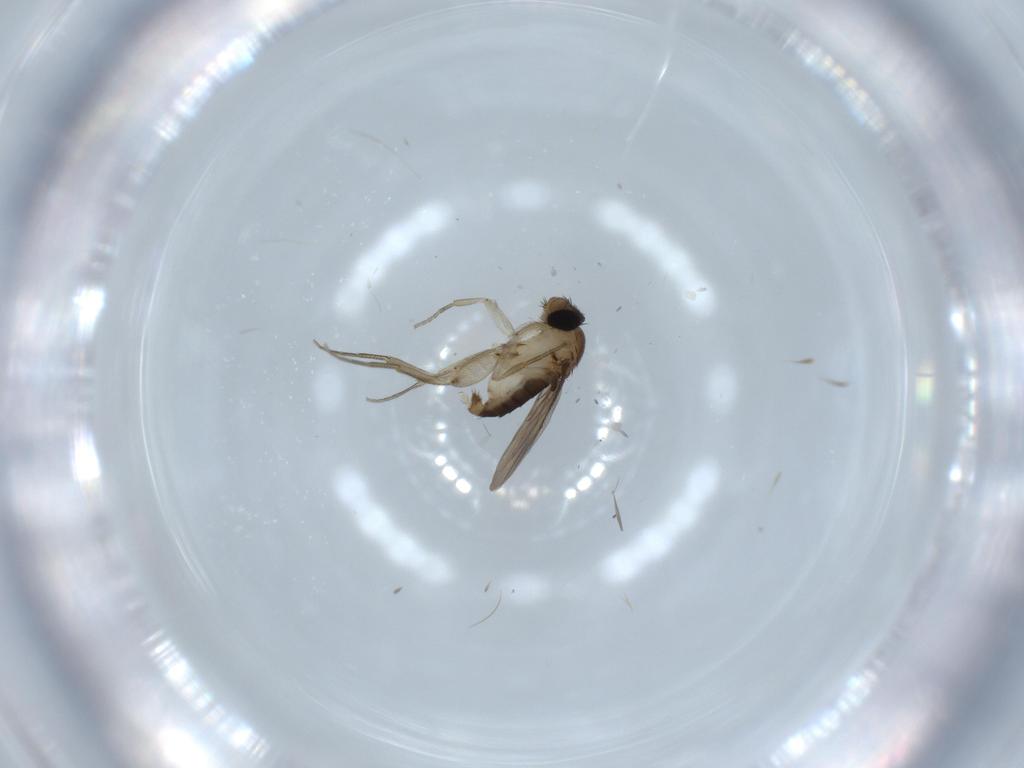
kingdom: Animalia
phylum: Arthropoda
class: Insecta
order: Diptera
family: Phoridae
